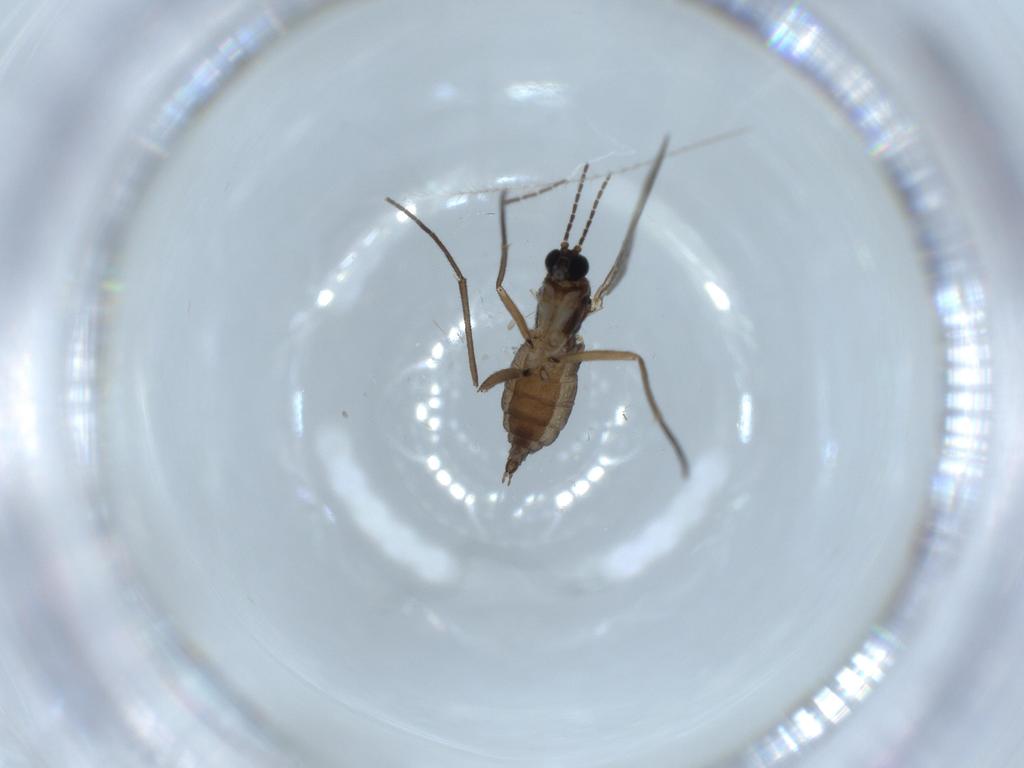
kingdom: Animalia
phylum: Arthropoda
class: Insecta
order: Diptera
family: Sciaridae
